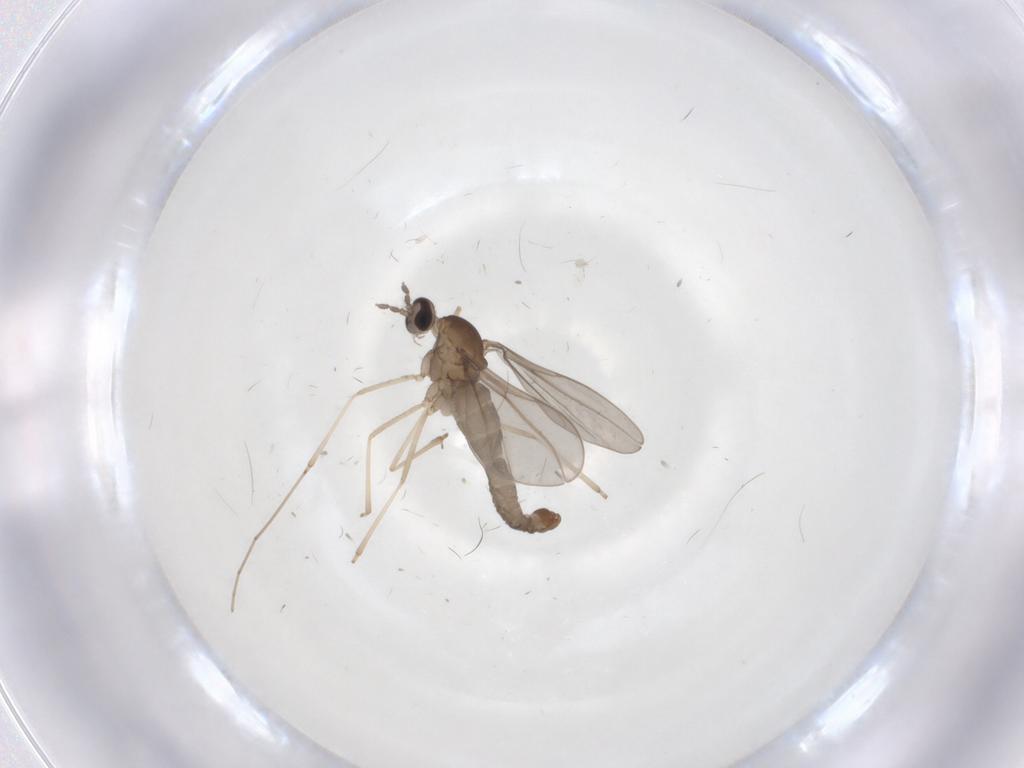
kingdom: Animalia
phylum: Arthropoda
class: Insecta
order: Diptera
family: Cecidomyiidae
